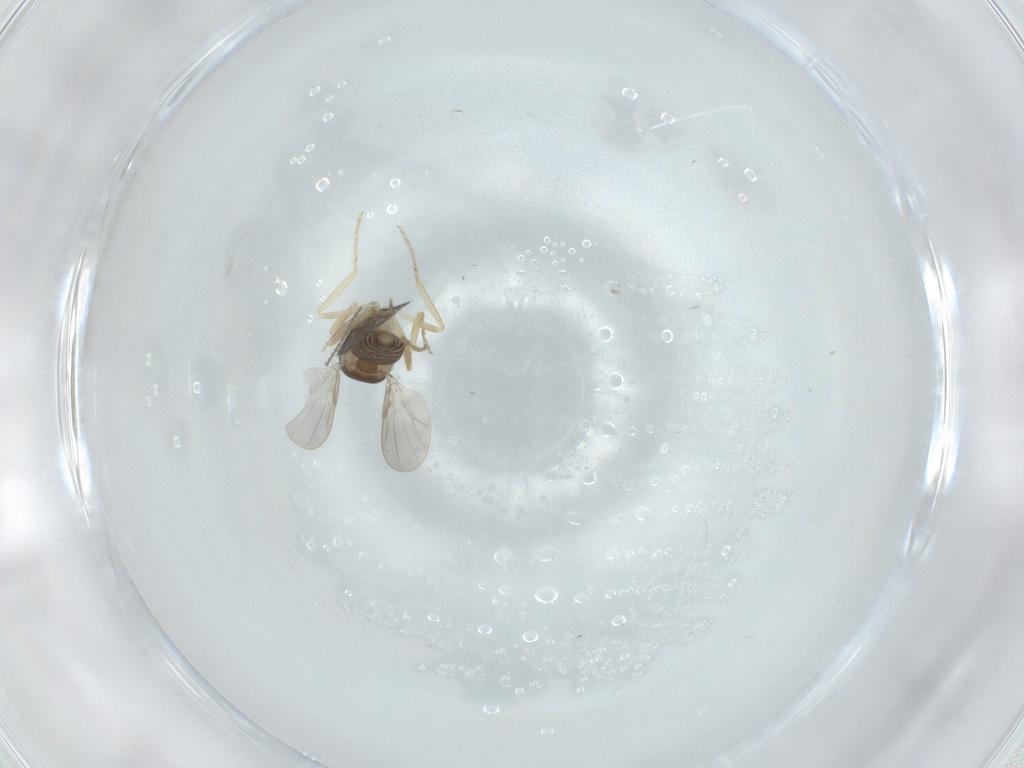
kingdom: Animalia
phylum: Arthropoda
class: Insecta
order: Diptera
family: Ceratopogonidae
